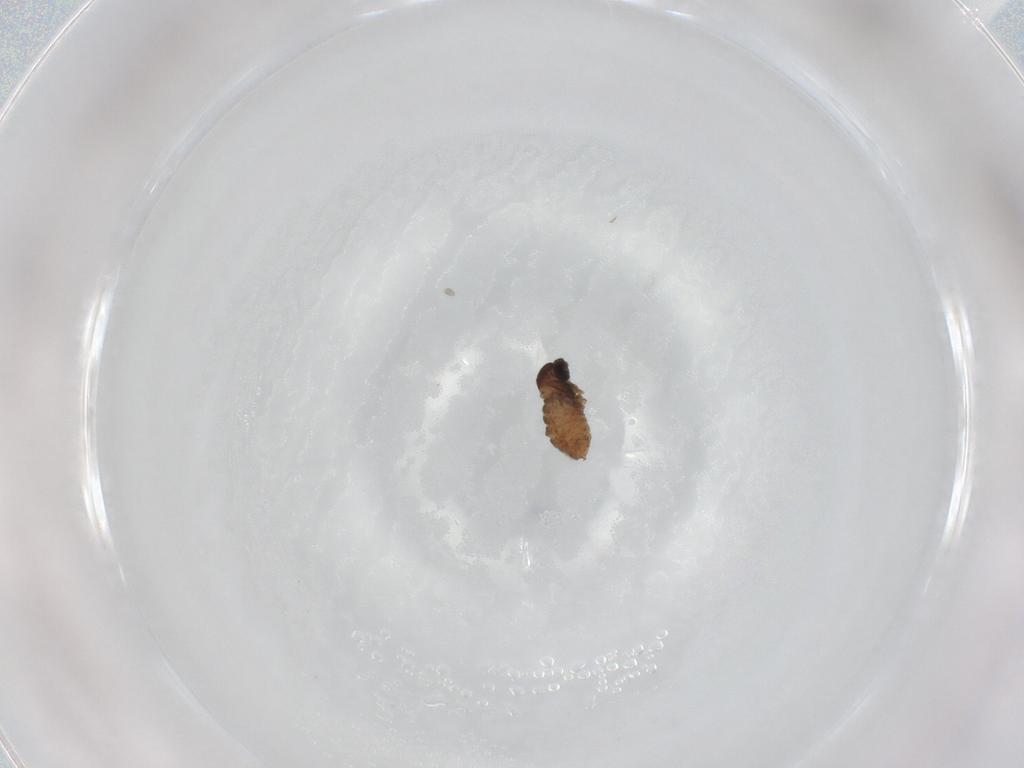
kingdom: Animalia
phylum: Arthropoda
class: Insecta
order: Diptera
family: Cecidomyiidae
